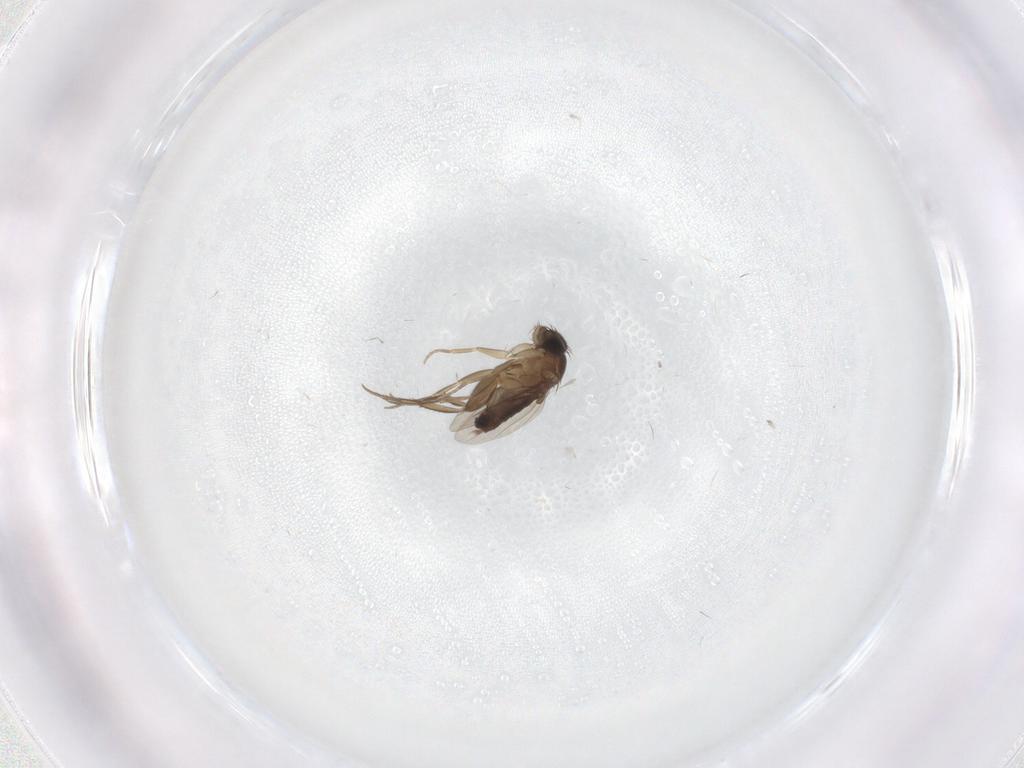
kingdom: Animalia
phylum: Arthropoda
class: Insecta
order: Diptera
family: Phoridae
